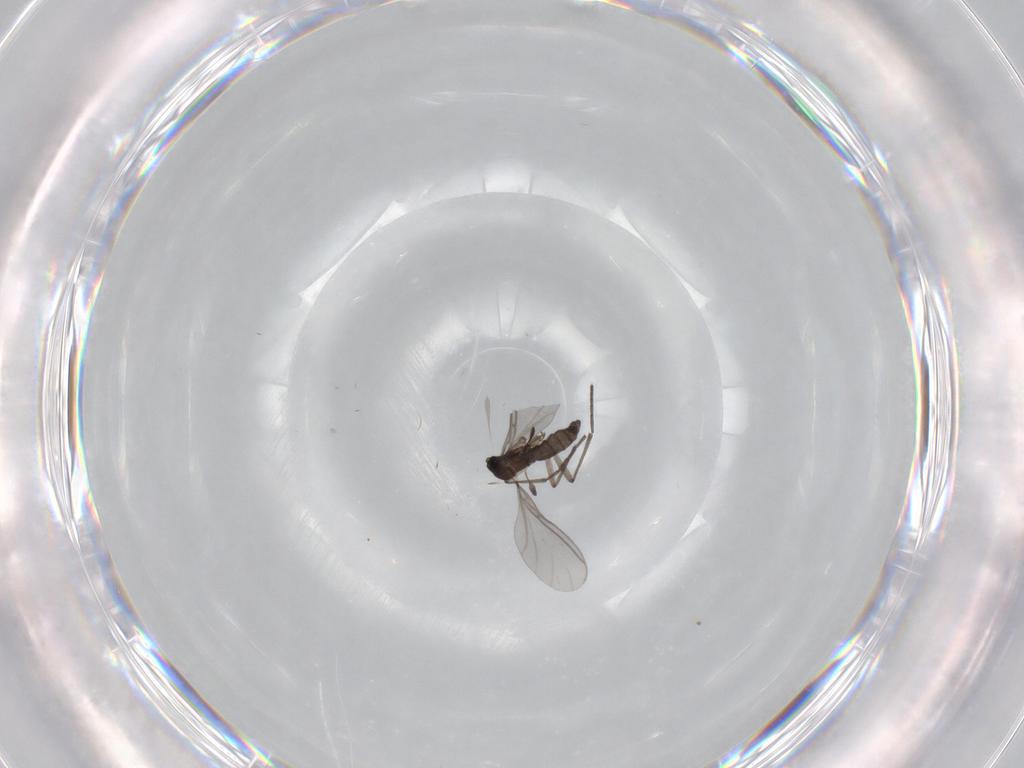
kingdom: Animalia
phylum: Arthropoda
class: Insecta
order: Diptera
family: Sciaridae
